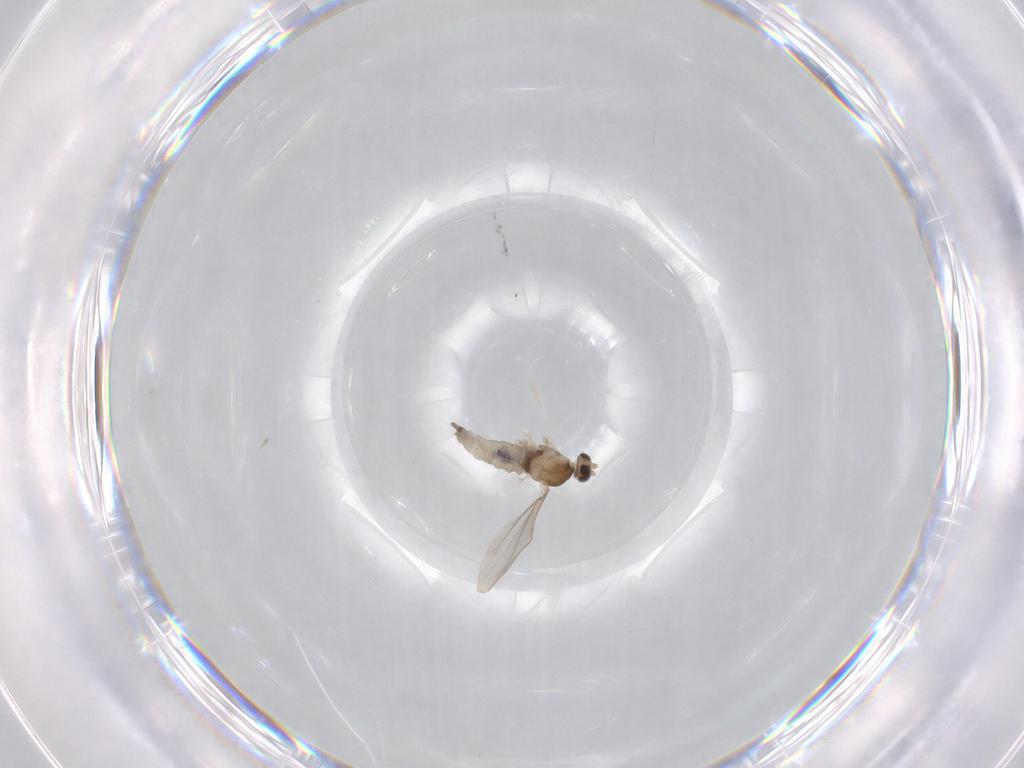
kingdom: Animalia
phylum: Arthropoda
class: Insecta
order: Diptera
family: Cecidomyiidae
